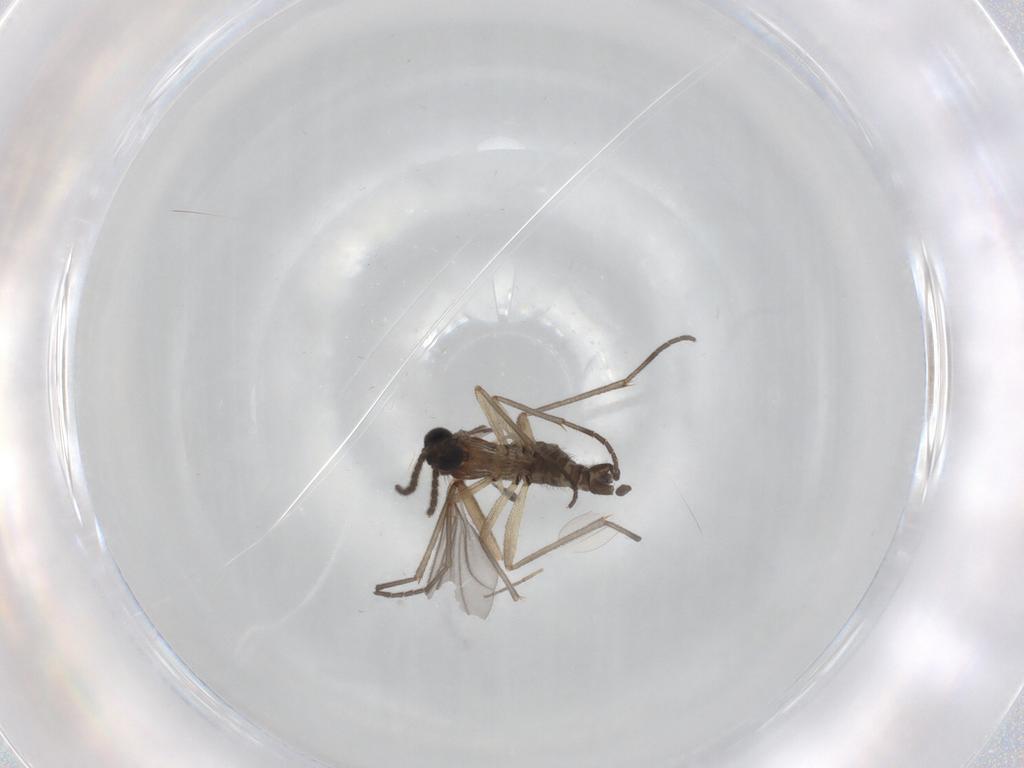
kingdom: Animalia
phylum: Arthropoda
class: Insecta
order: Diptera
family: Sciaridae
